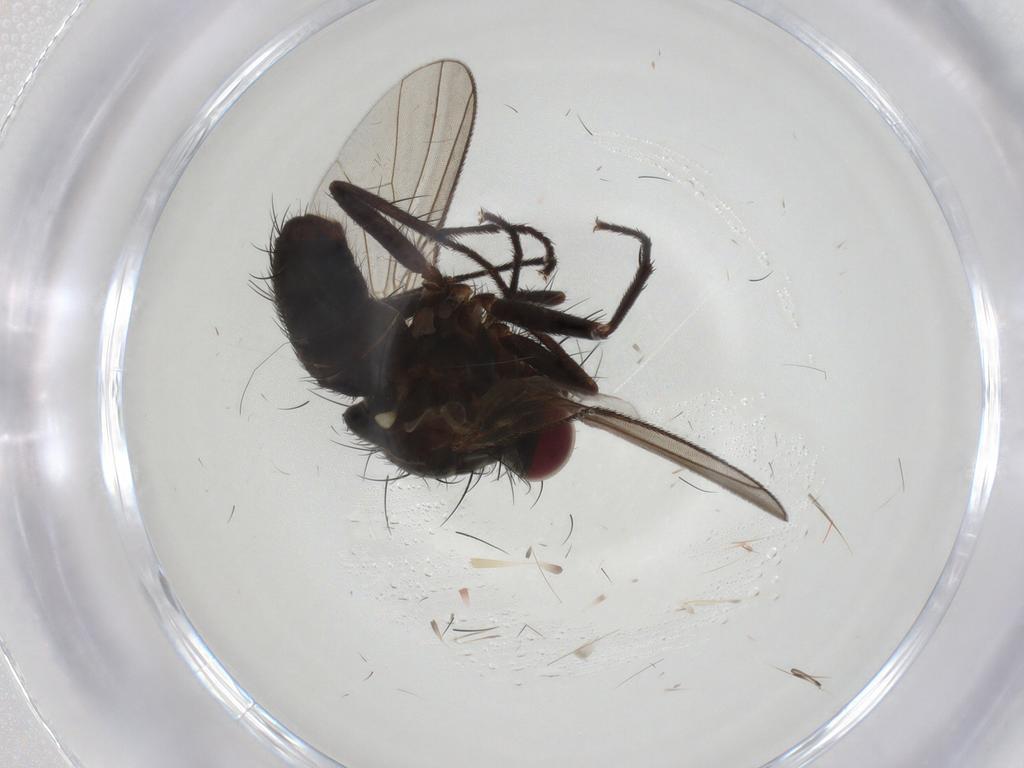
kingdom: Animalia
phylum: Arthropoda
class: Insecta
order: Diptera
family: Muscidae
